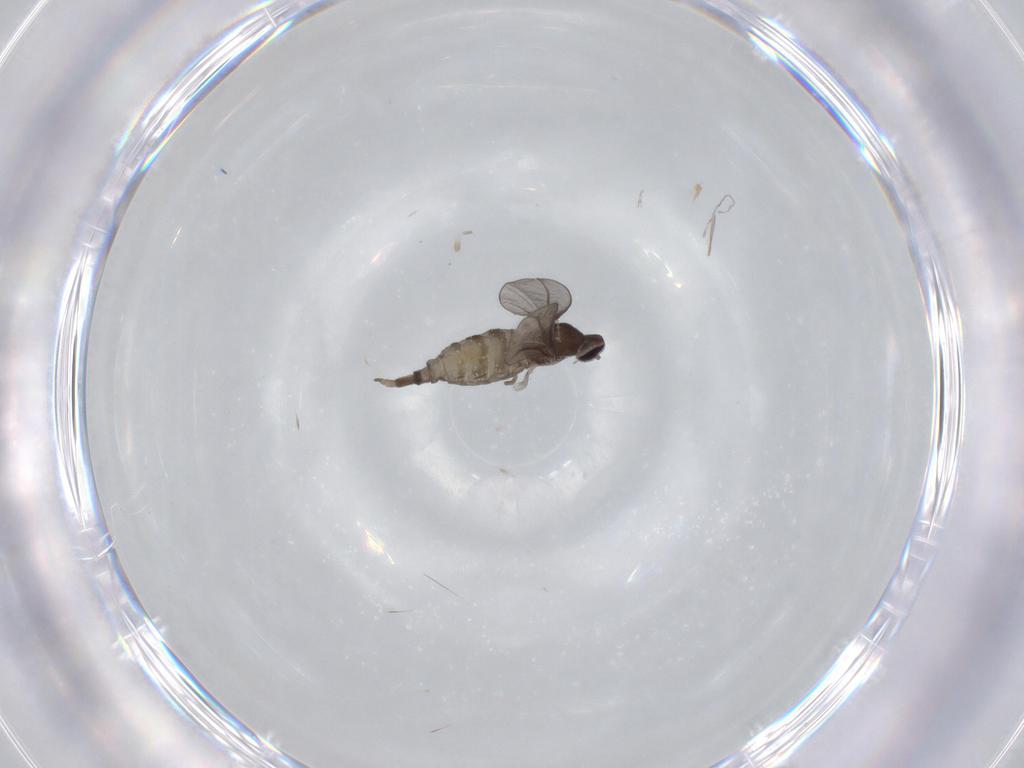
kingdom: Animalia
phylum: Arthropoda
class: Insecta
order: Diptera
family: Cecidomyiidae
